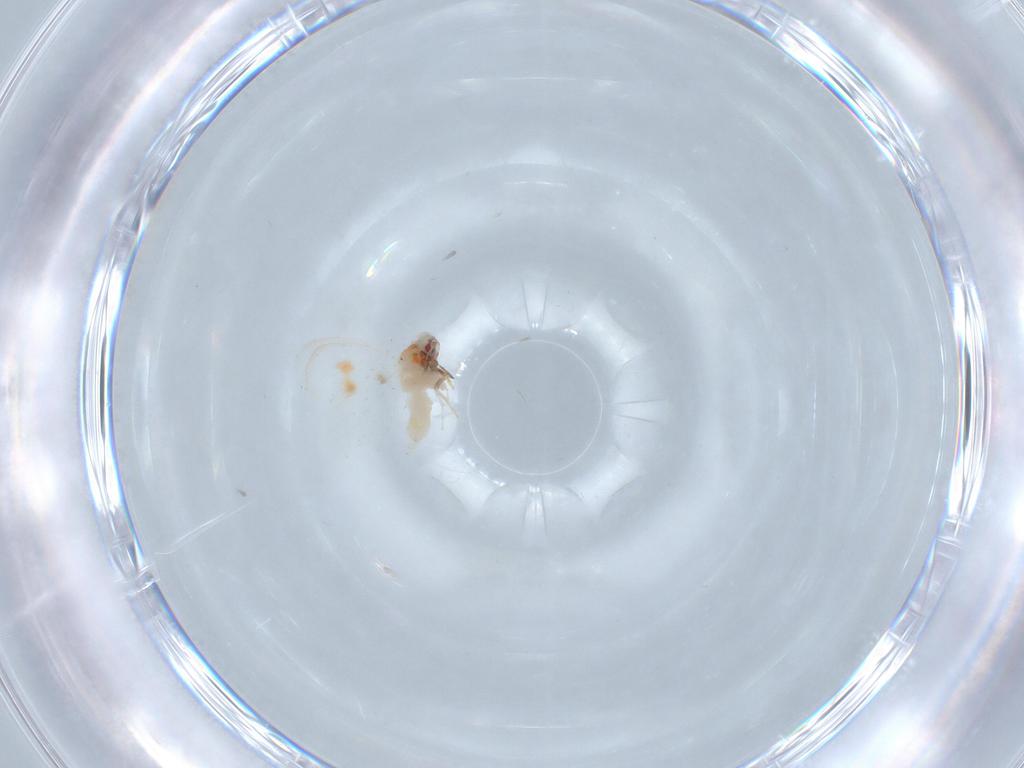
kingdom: Animalia
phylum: Arthropoda
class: Insecta
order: Hemiptera
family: Aleyrodidae
